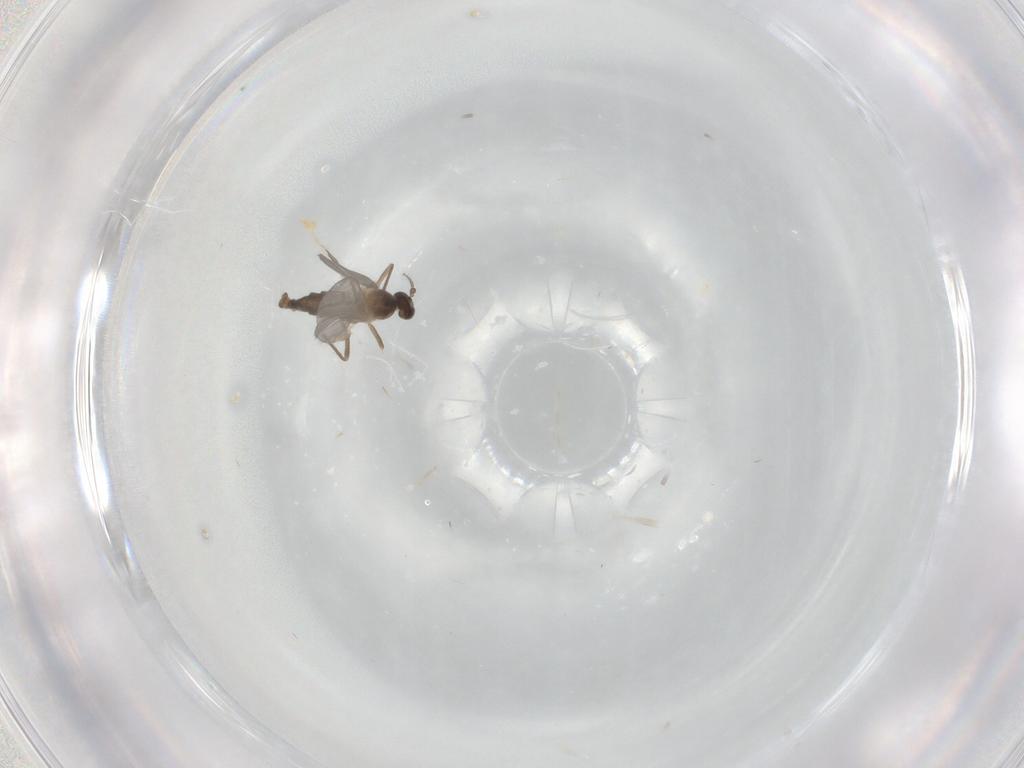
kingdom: Animalia
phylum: Arthropoda
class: Insecta
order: Diptera
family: Cecidomyiidae
